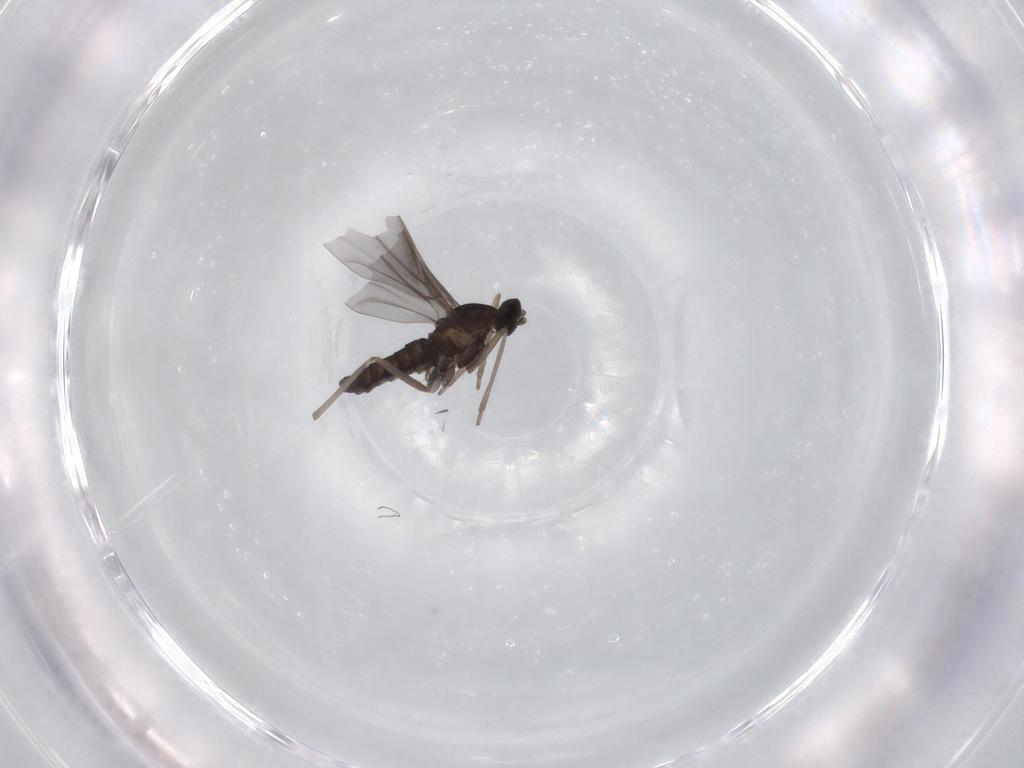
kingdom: Animalia
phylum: Arthropoda
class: Insecta
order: Diptera
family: Cecidomyiidae
